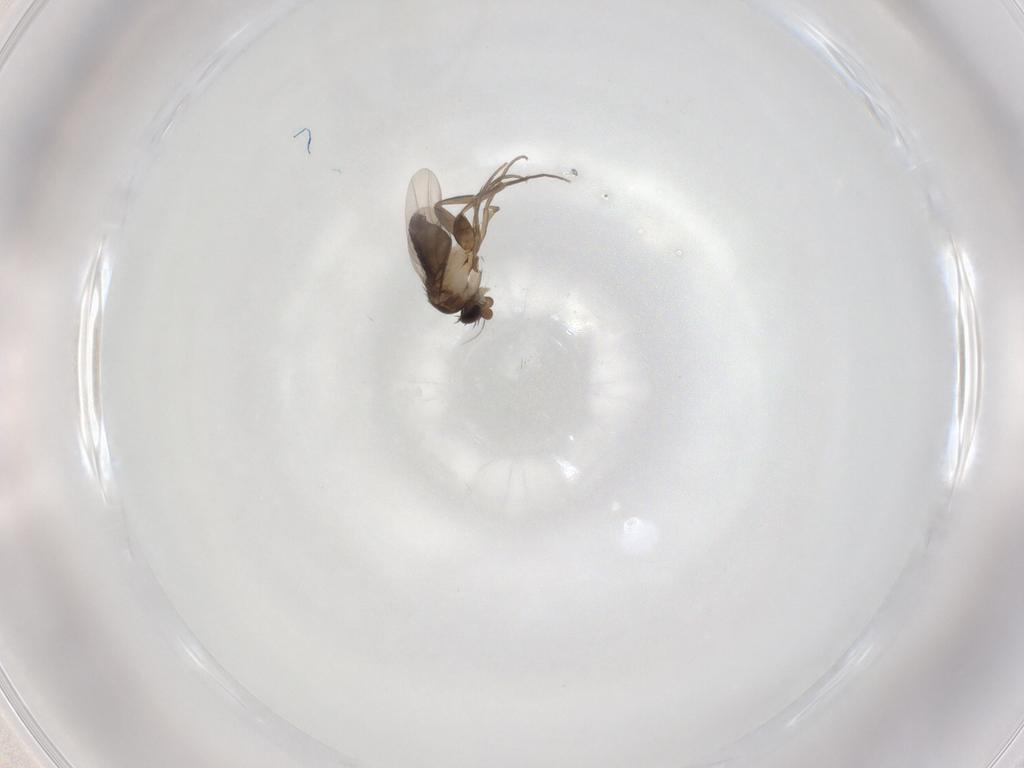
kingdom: Animalia
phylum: Arthropoda
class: Insecta
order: Diptera
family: Phoridae
